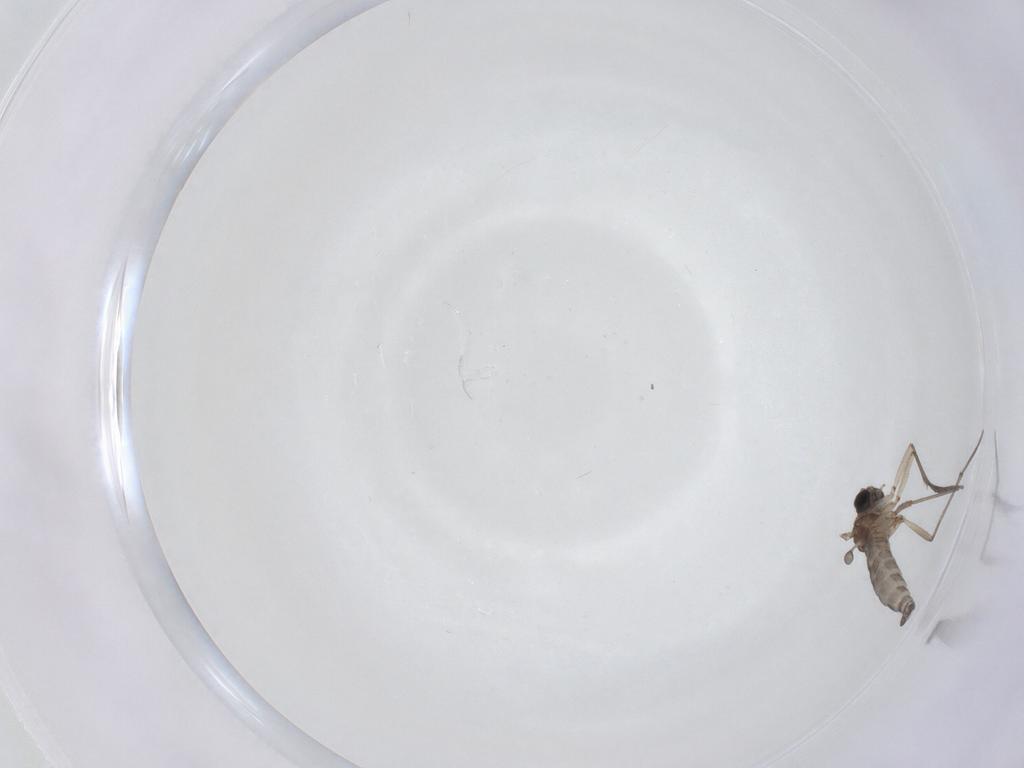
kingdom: Animalia
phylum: Arthropoda
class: Insecta
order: Diptera
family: Sciaridae
